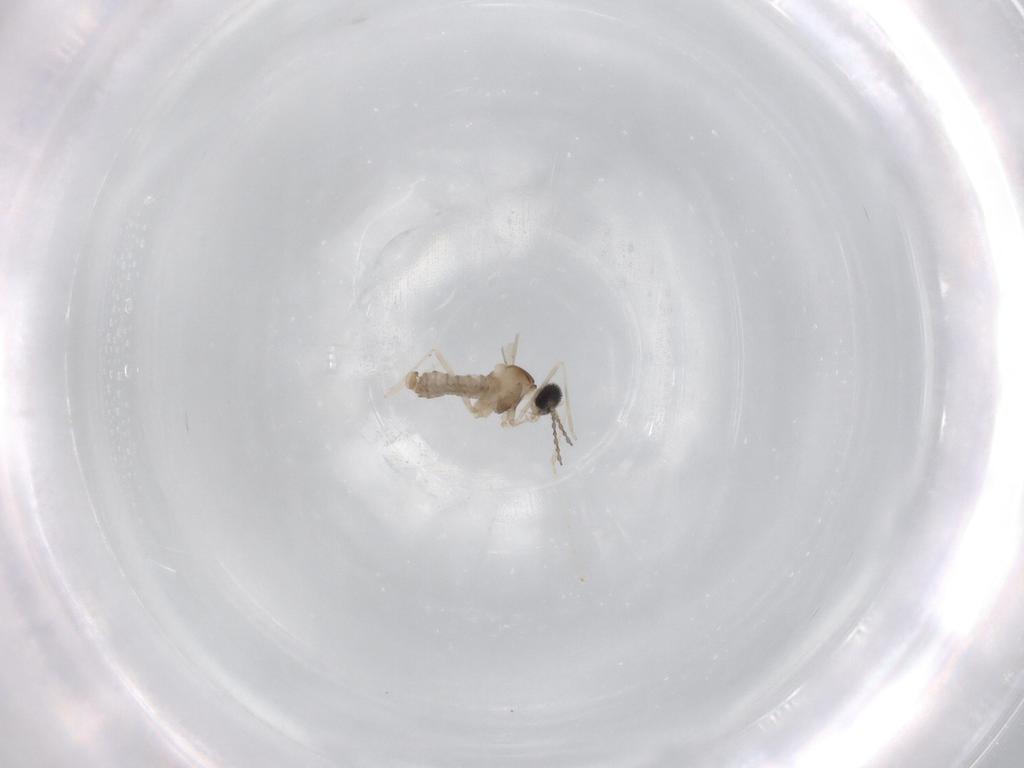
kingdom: Animalia
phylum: Arthropoda
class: Insecta
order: Diptera
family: Cecidomyiidae
